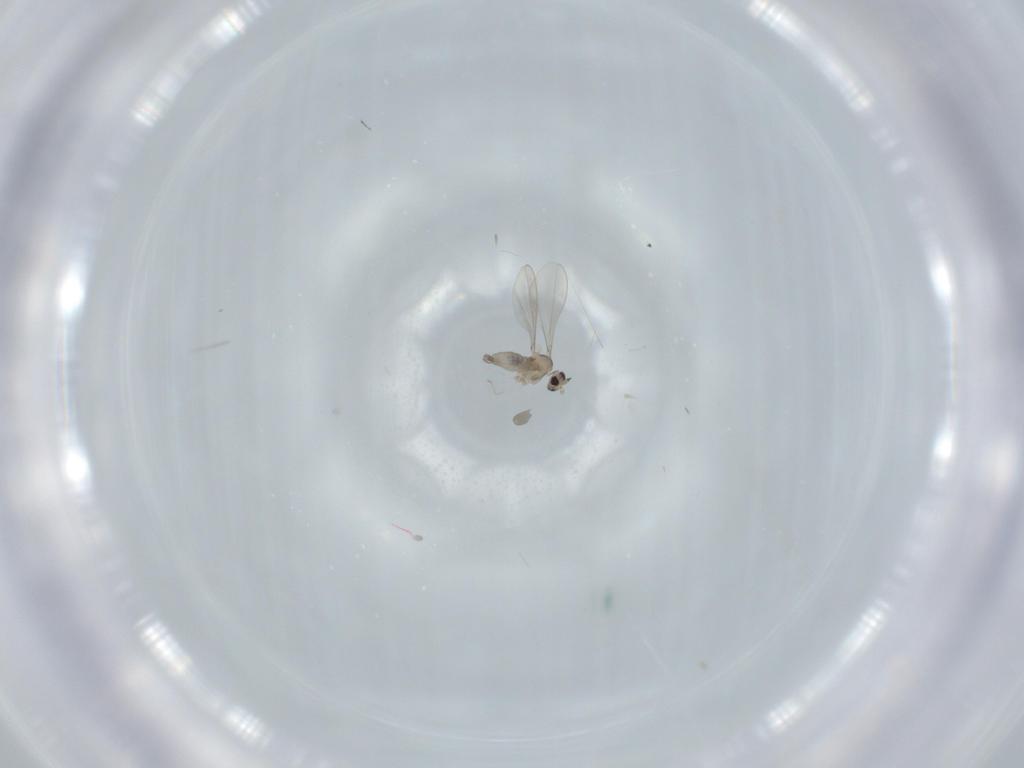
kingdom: Animalia
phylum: Arthropoda
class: Insecta
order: Diptera
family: Cecidomyiidae
